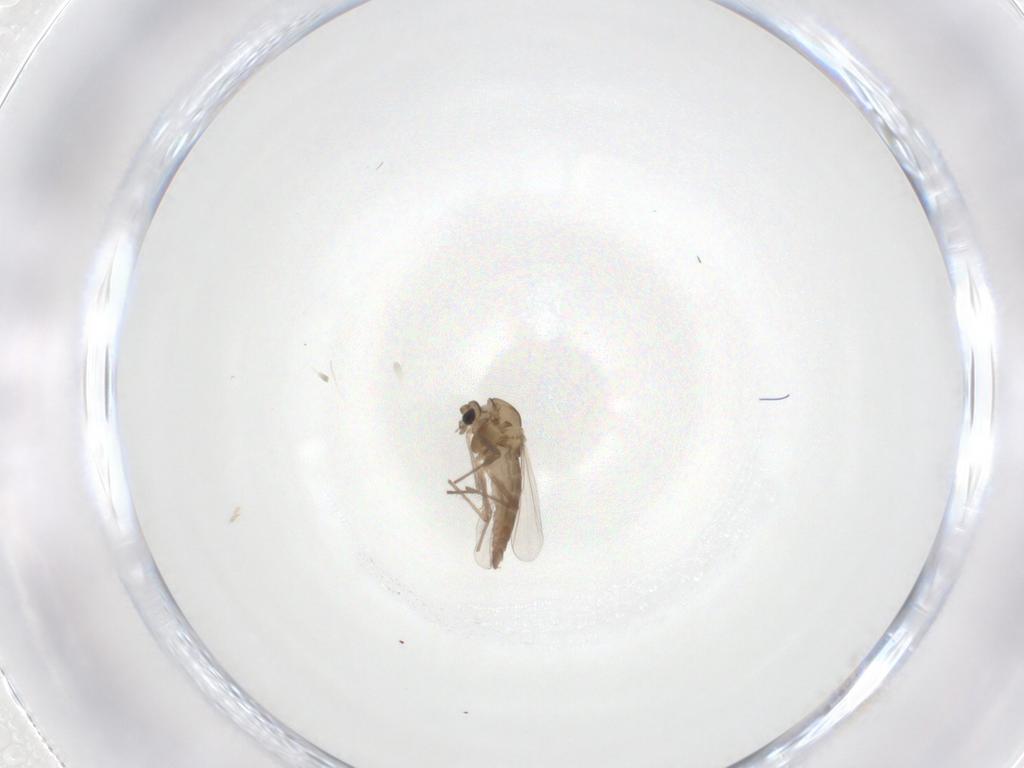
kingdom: Animalia
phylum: Arthropoda
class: Insecta
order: Diptera
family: Chironomidae
